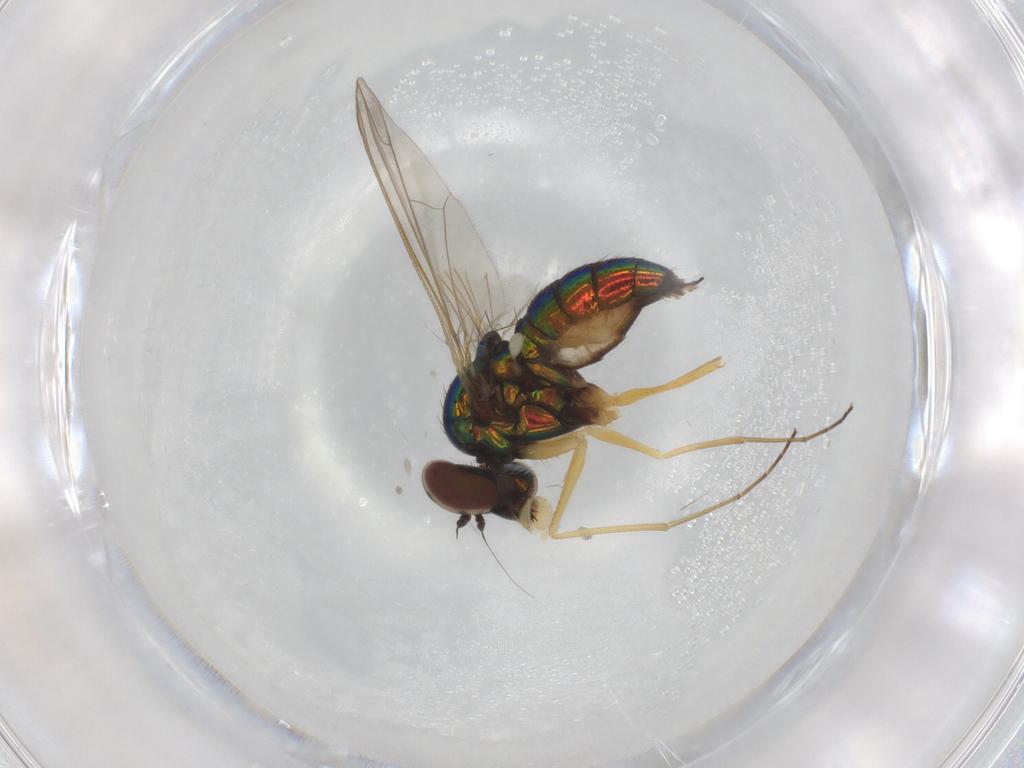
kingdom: Animalia
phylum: Arthropoda
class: Insecta
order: Diptera
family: Dolichopodidae
